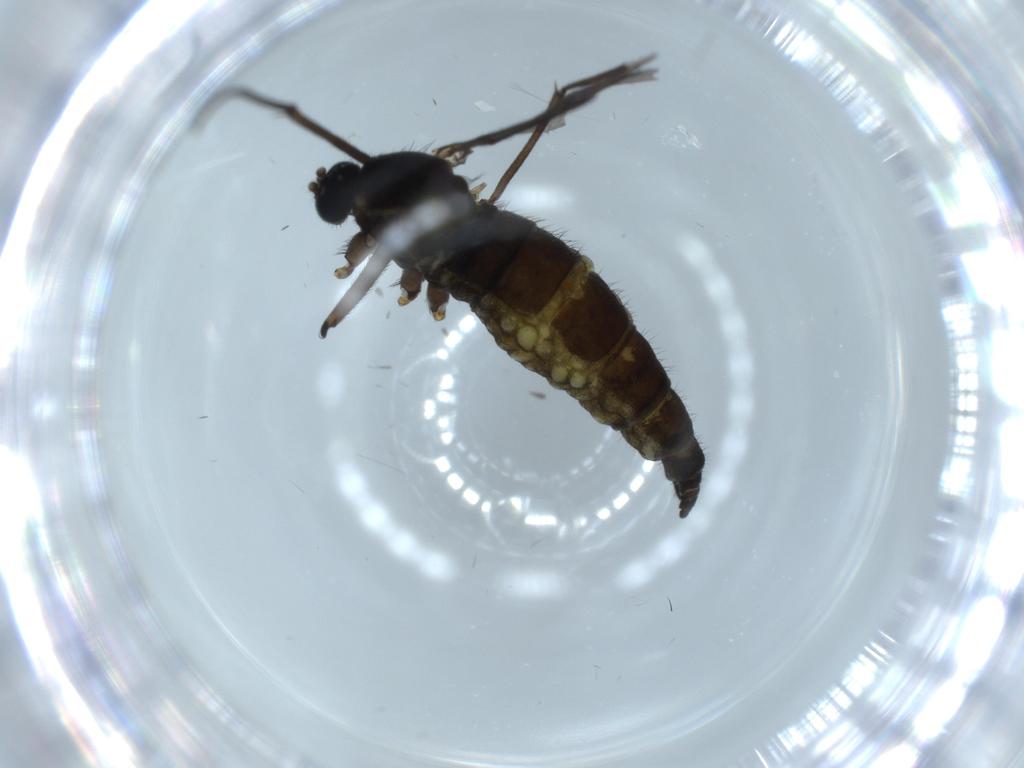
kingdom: Animalia
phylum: Arthropoda
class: Insecta
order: Diptera
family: Sciaridae
